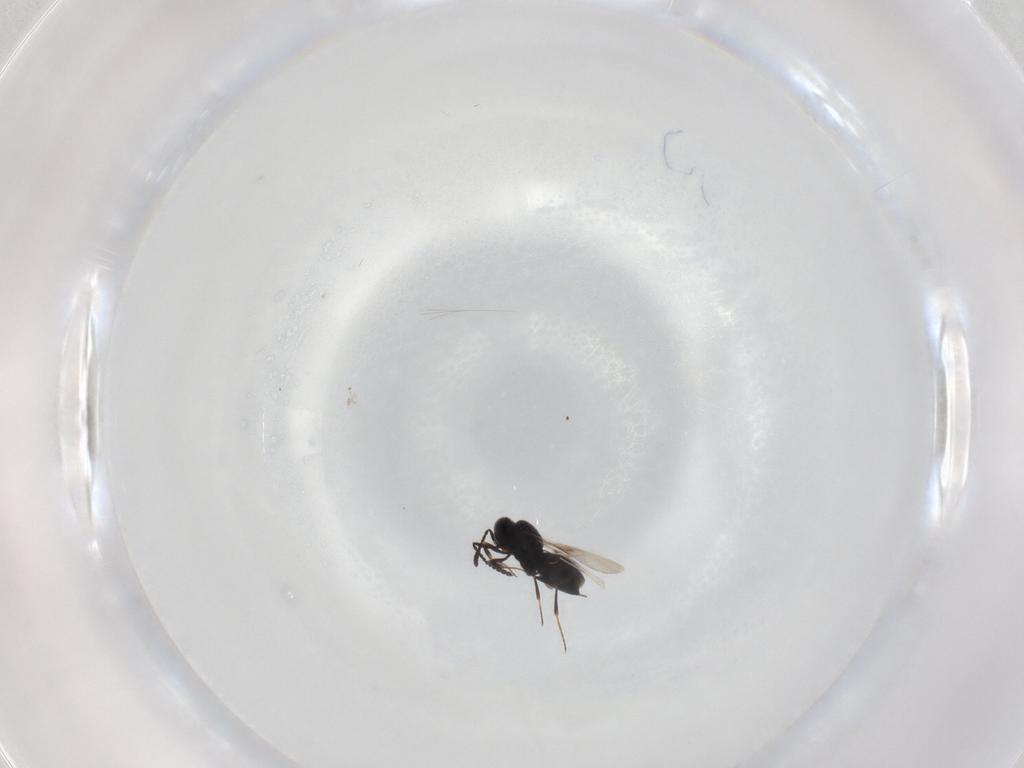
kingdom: Animalia
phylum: Arthropoda
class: Insecta
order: Hymenoptera
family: Scelionidae
